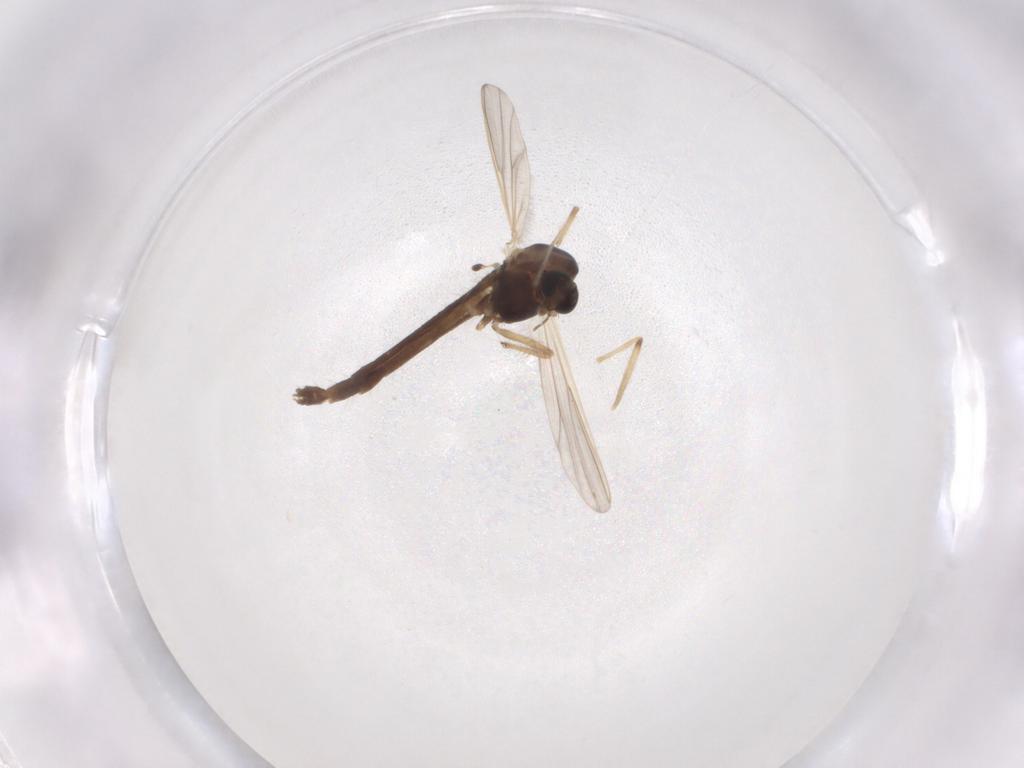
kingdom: Animalia
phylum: Arthropoda
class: Insecta
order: Diptera
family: Chironomidae
